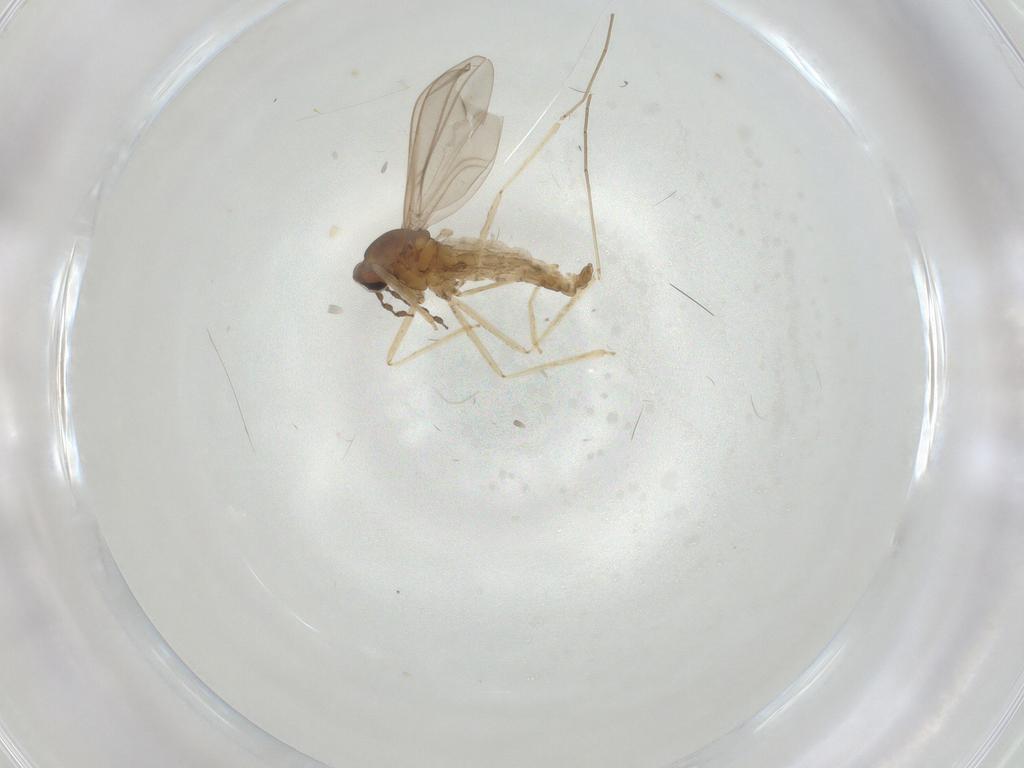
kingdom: Animalia
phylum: Arthropoda
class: Insecta
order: Diptera
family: Cecidomyiidae
